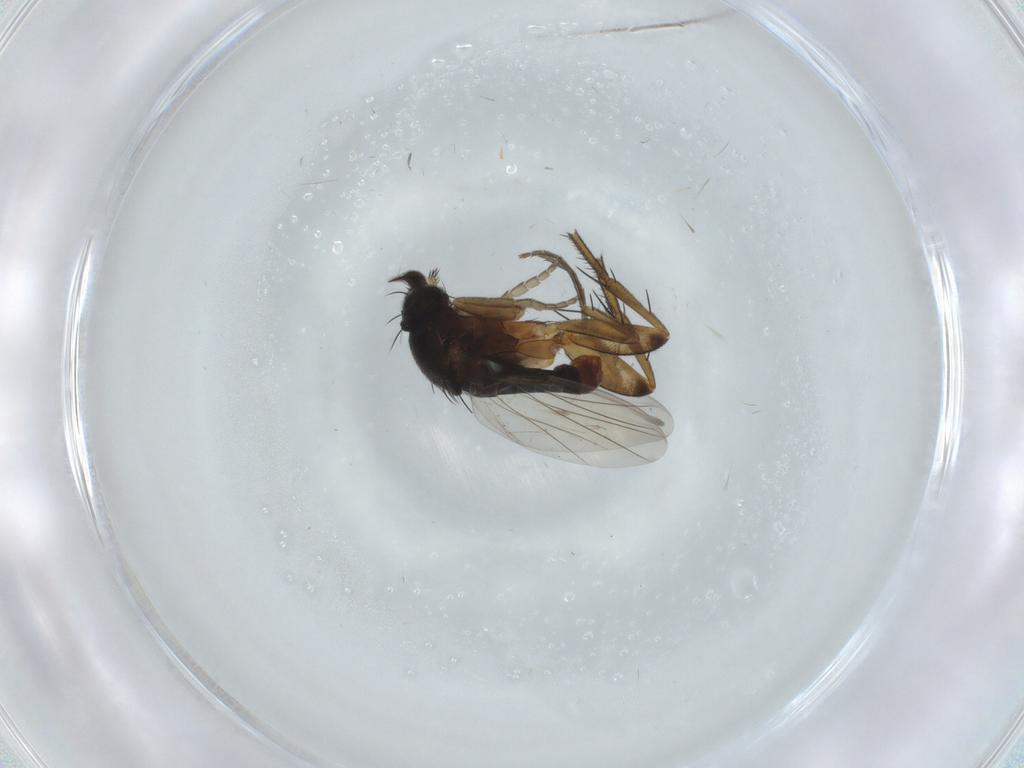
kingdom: Animalia
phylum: Arthropoda
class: Insecta
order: Diptera
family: Phoridae
